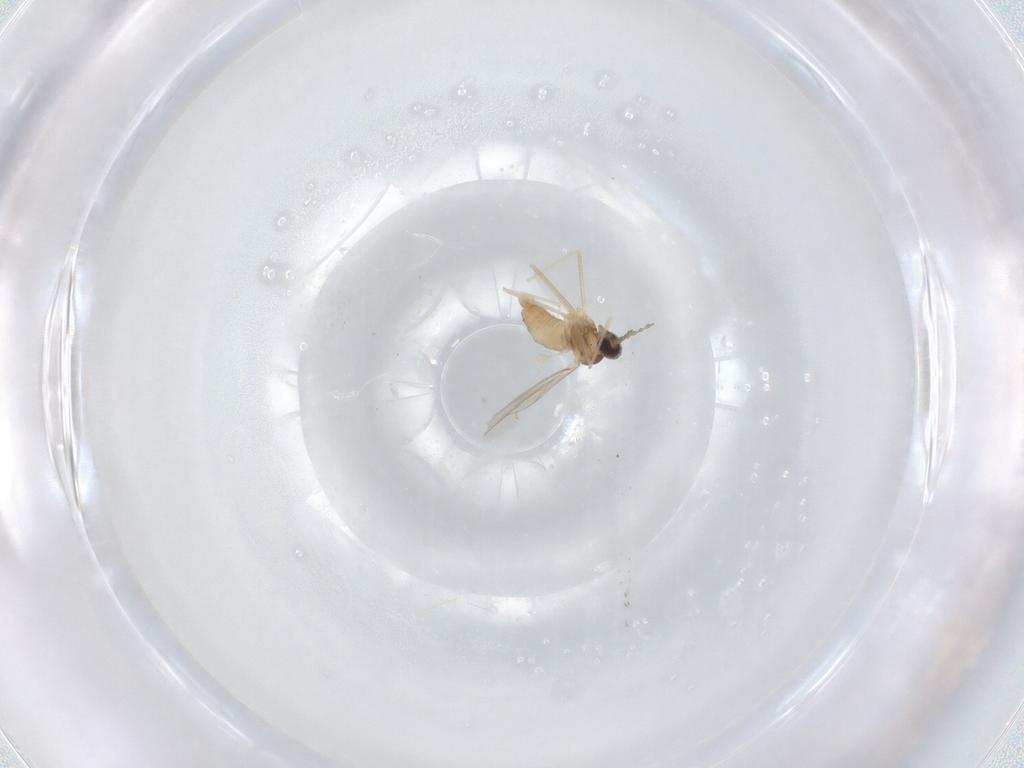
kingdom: Animalia
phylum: Arthropoda
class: Insecta
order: Diptera
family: Cecidomyiidae
